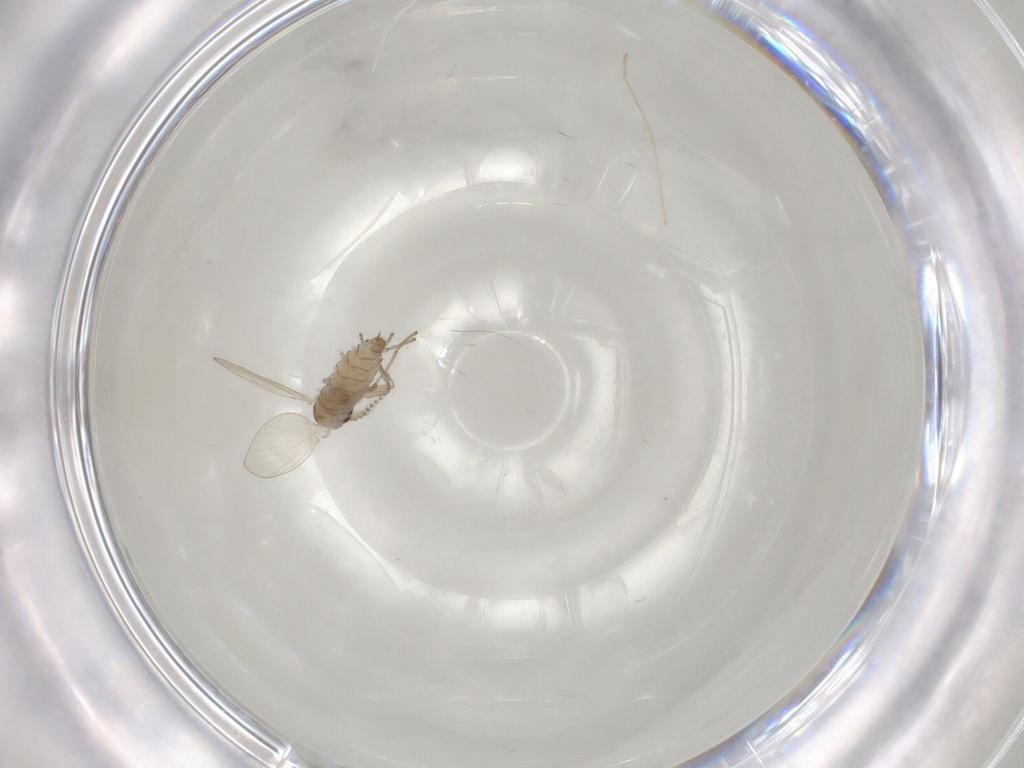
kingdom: Animalia
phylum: Arthropoda
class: Insecta
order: Diptera
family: Psychodidae
